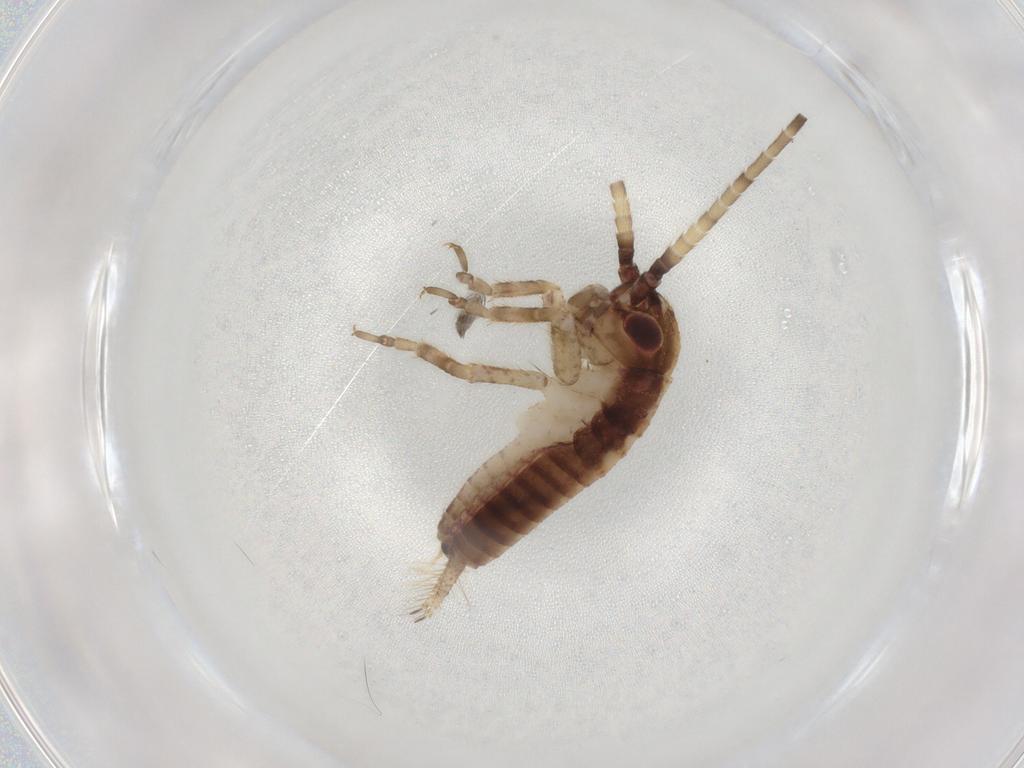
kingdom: Animalia
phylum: Arthropoda
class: Insecta
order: Orthoptera
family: Gryllidae
